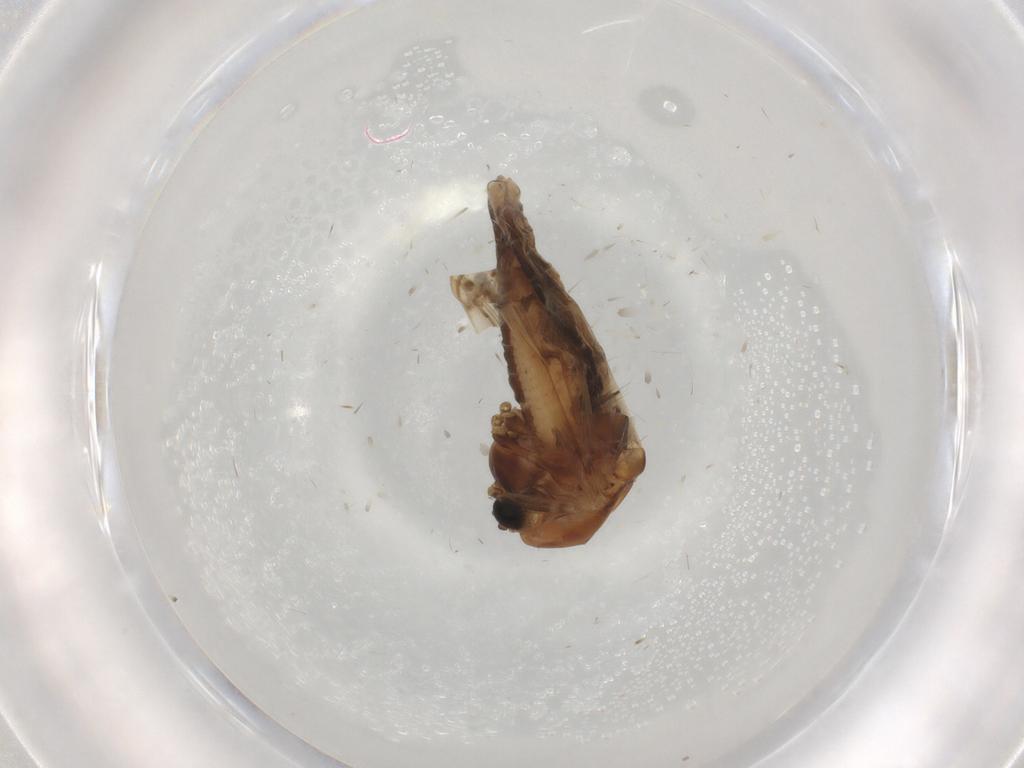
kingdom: Animalia
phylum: Arthropoda
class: Insecta
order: Diptera
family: Chironomidae
